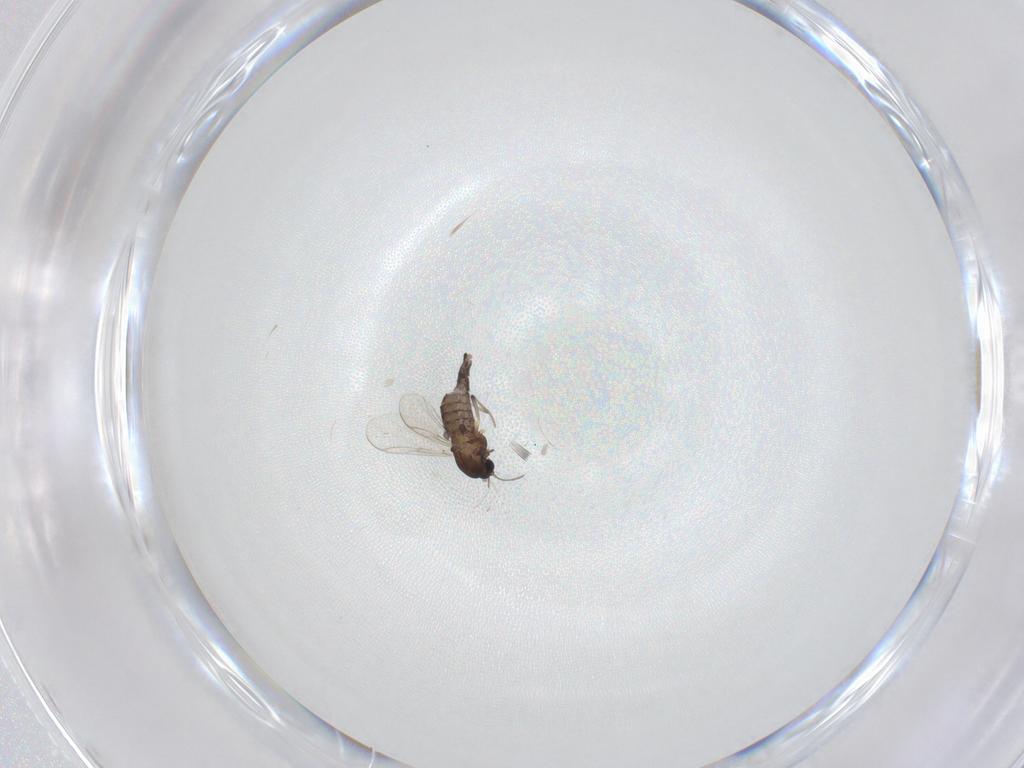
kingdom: Animalia
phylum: Arthropoda
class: Insecta
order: Diptera
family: Chironomidae
